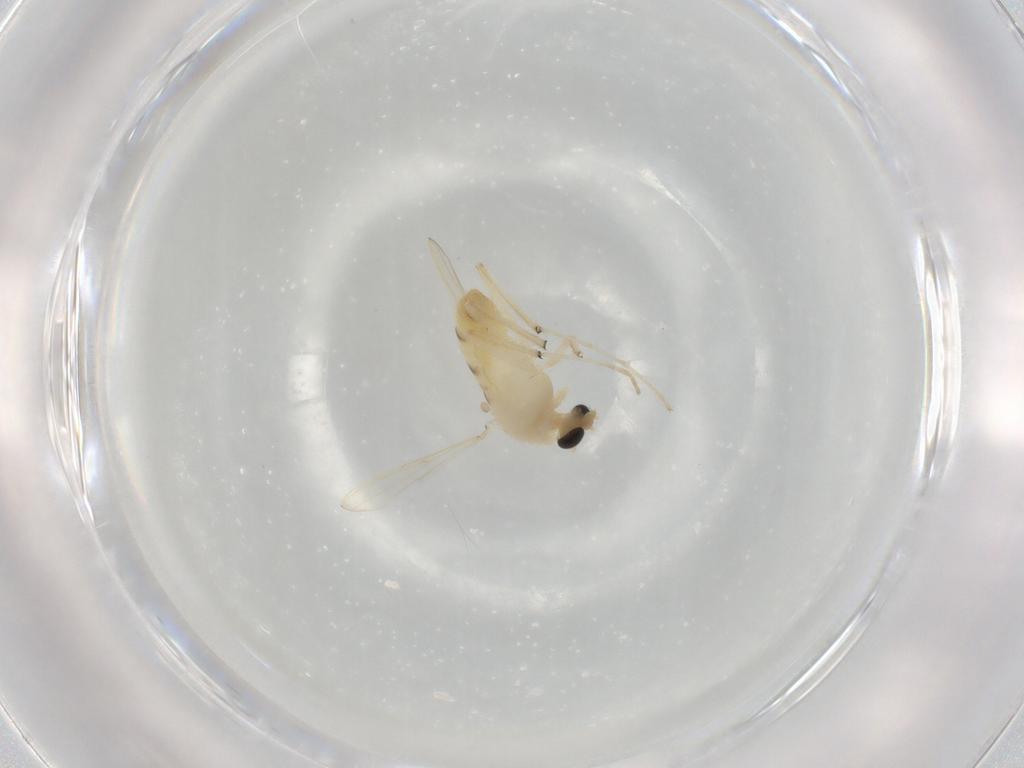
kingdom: Animalia
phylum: Arthropoda
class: Insecta
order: Diptera
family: Chironomidae
